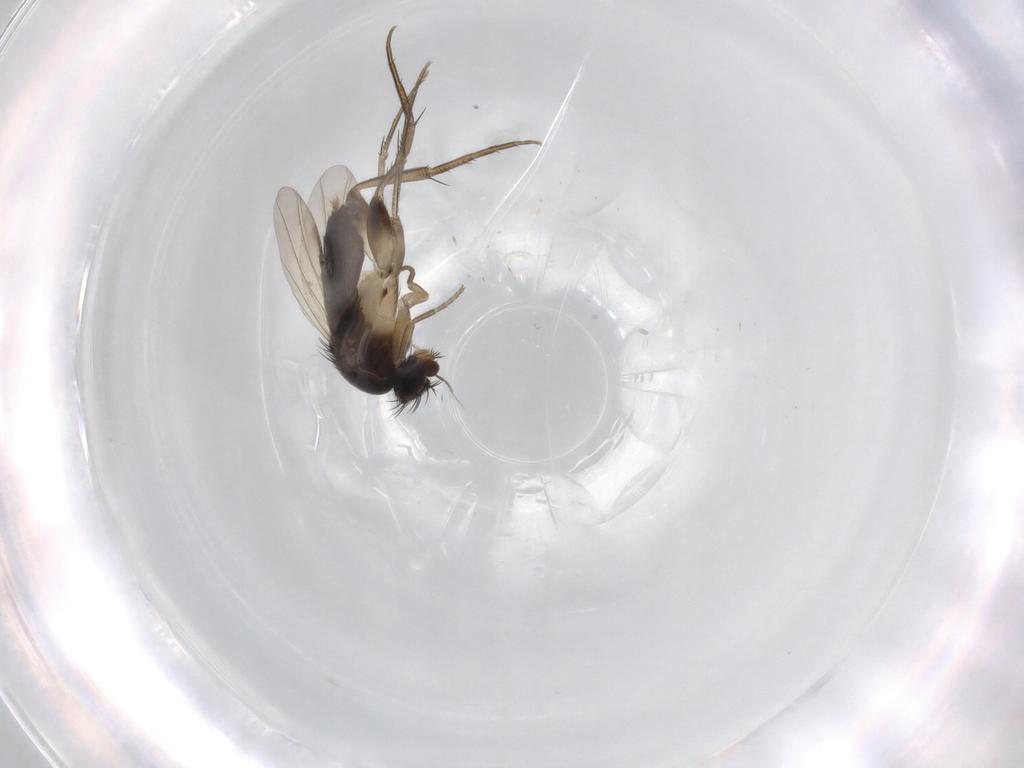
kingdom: Animalia
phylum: Arthropoda
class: Insecta
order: Diptera
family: Phoridae
